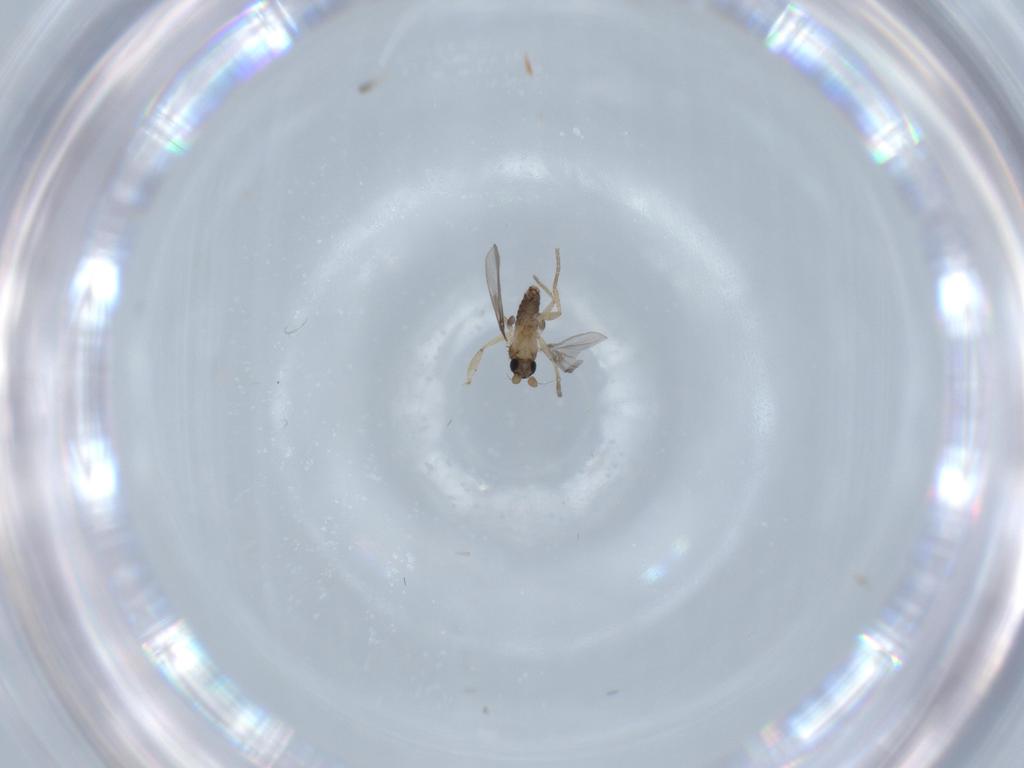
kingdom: Animalia
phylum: Arthropoda
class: Insecta
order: Diptera
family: Phoridae
